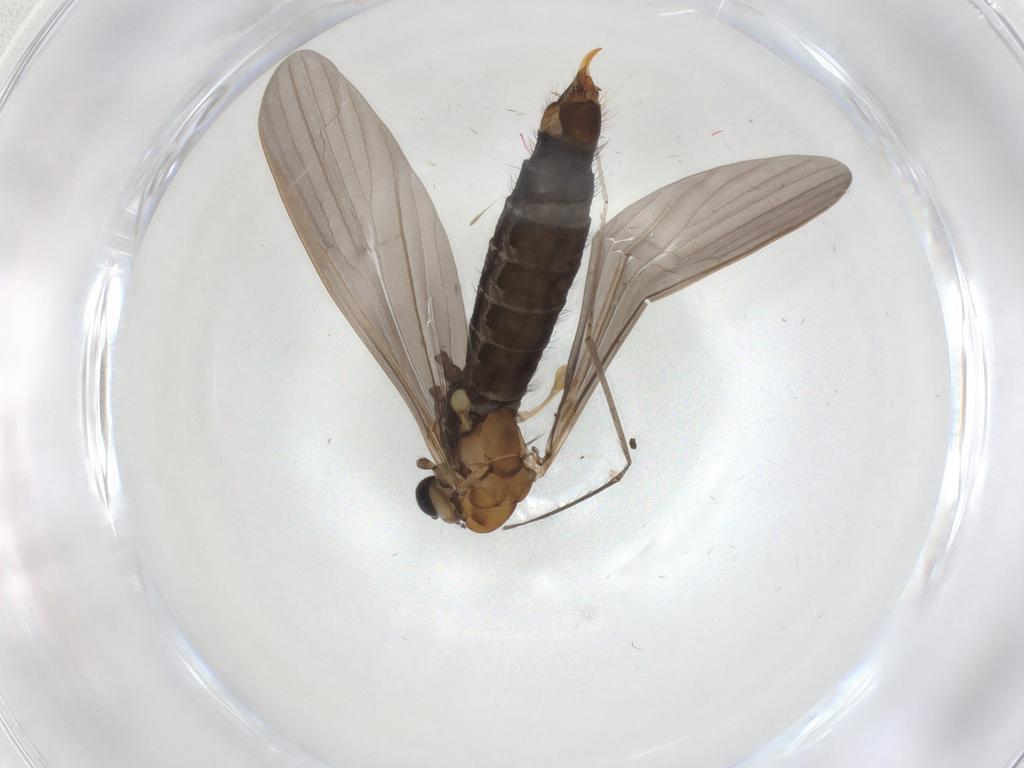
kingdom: Animalia
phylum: Arthropoda
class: Insecta
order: Diptera
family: Limoniidae
